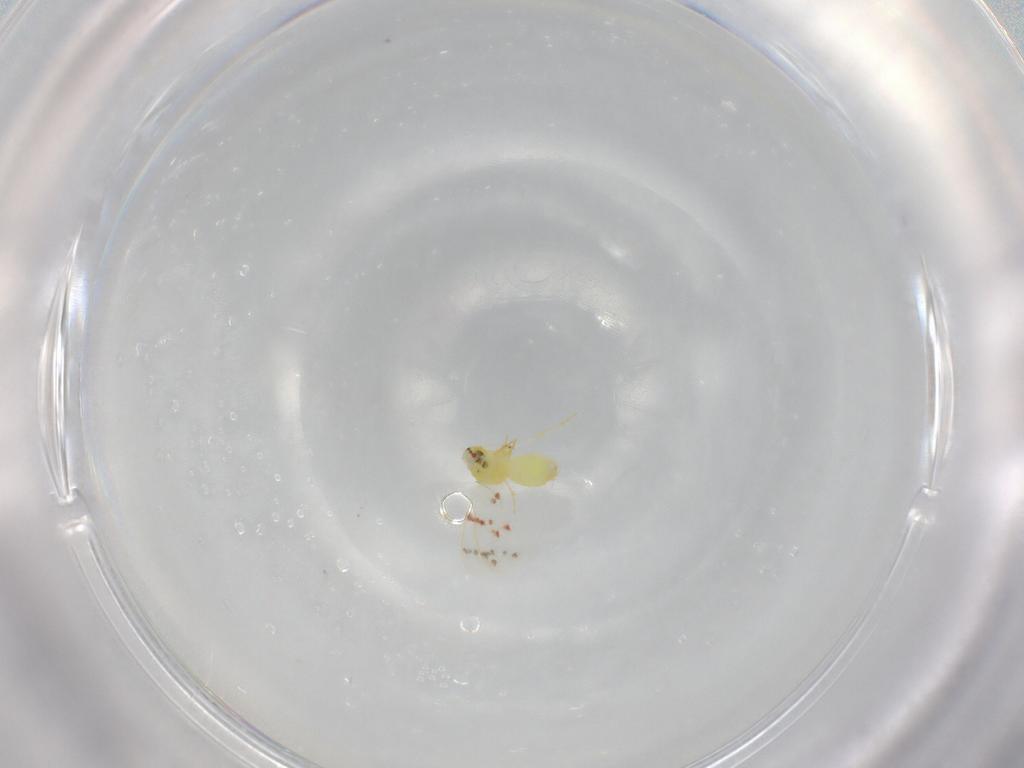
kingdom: Animalia
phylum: Arthropoda
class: Insecta
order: Hemiptera
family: Aleyrodidae
